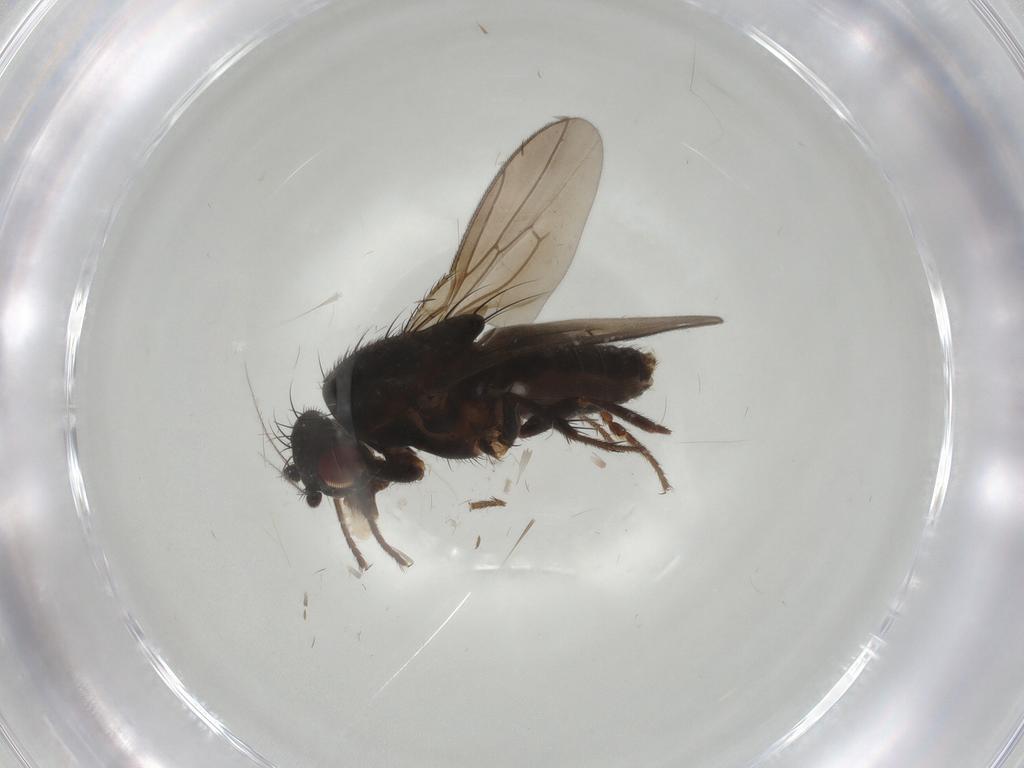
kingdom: Animalia
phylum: Arthropoda
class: Insecta
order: Diptera
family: Sphaeroceridae
